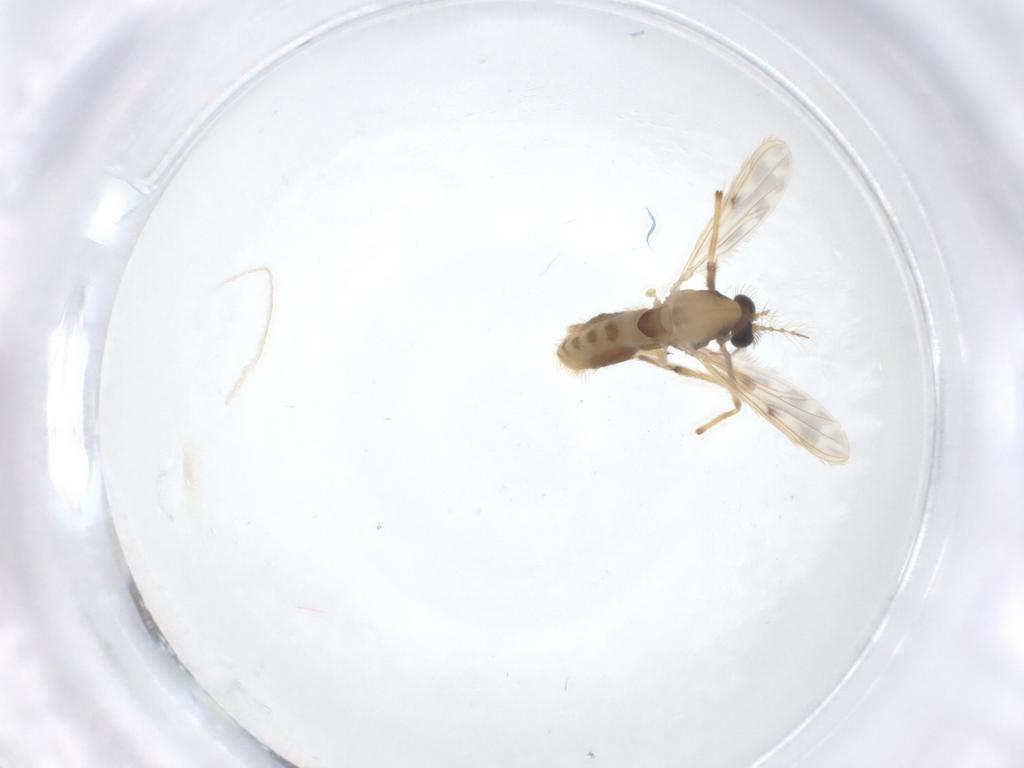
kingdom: Animalia
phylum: Arthropoda
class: Insecta
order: Diptera
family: Chironomidae
